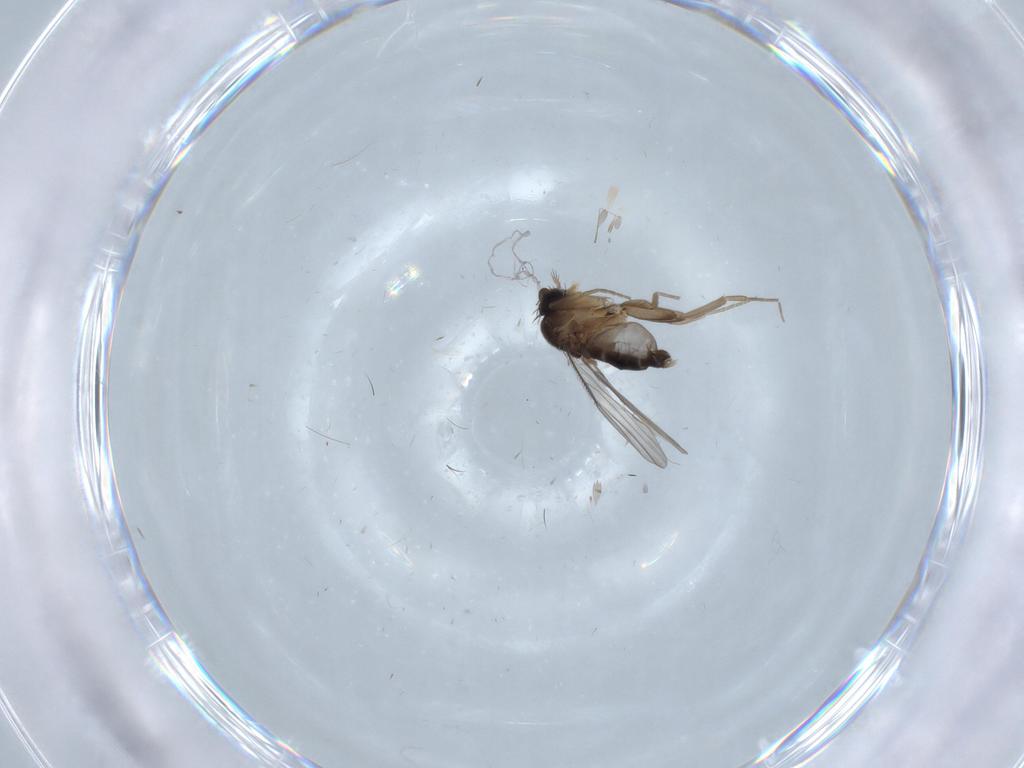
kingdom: Animalia
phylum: Arthropoda
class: Insecta
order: Diptera
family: Phoridae
